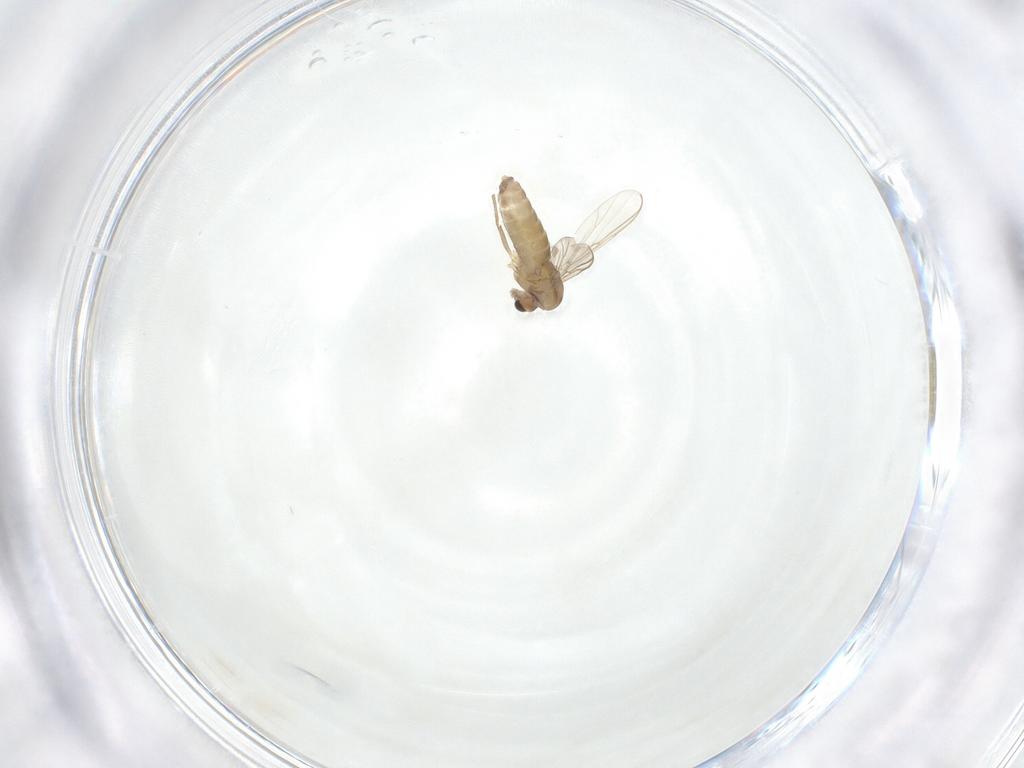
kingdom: Animalia
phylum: Arthropoda
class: Insecta
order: Diptera
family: Chironomidae
